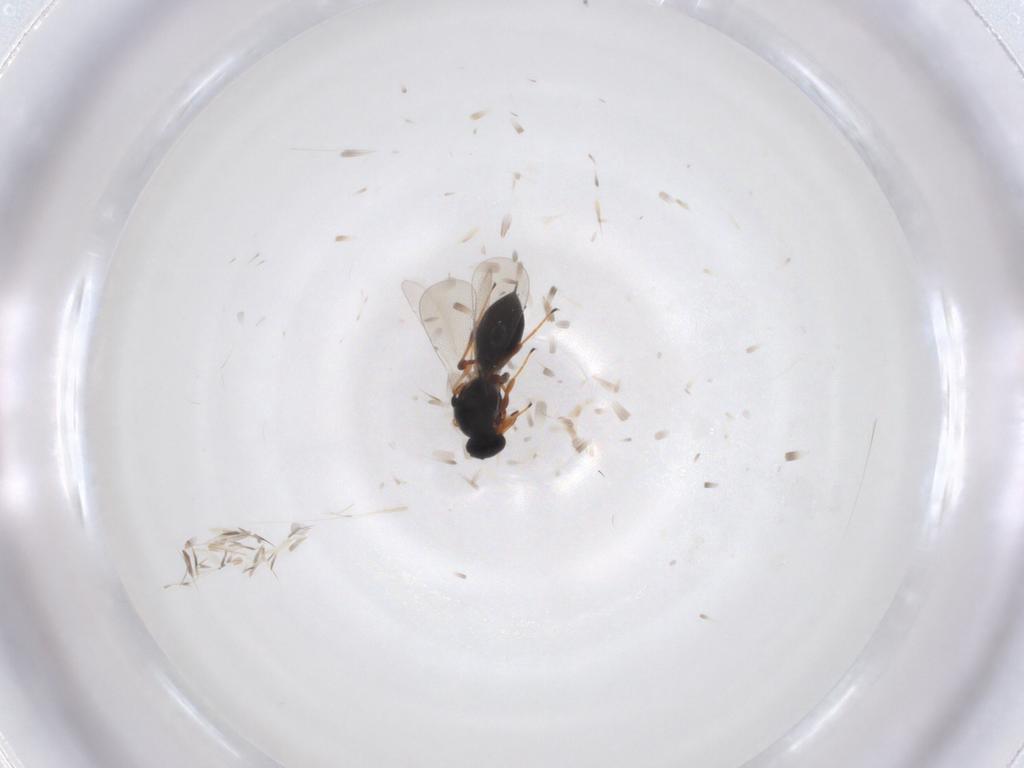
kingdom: Animalia
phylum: Arthropoda
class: Insecta
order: Hymenoptera
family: Platygastridae
